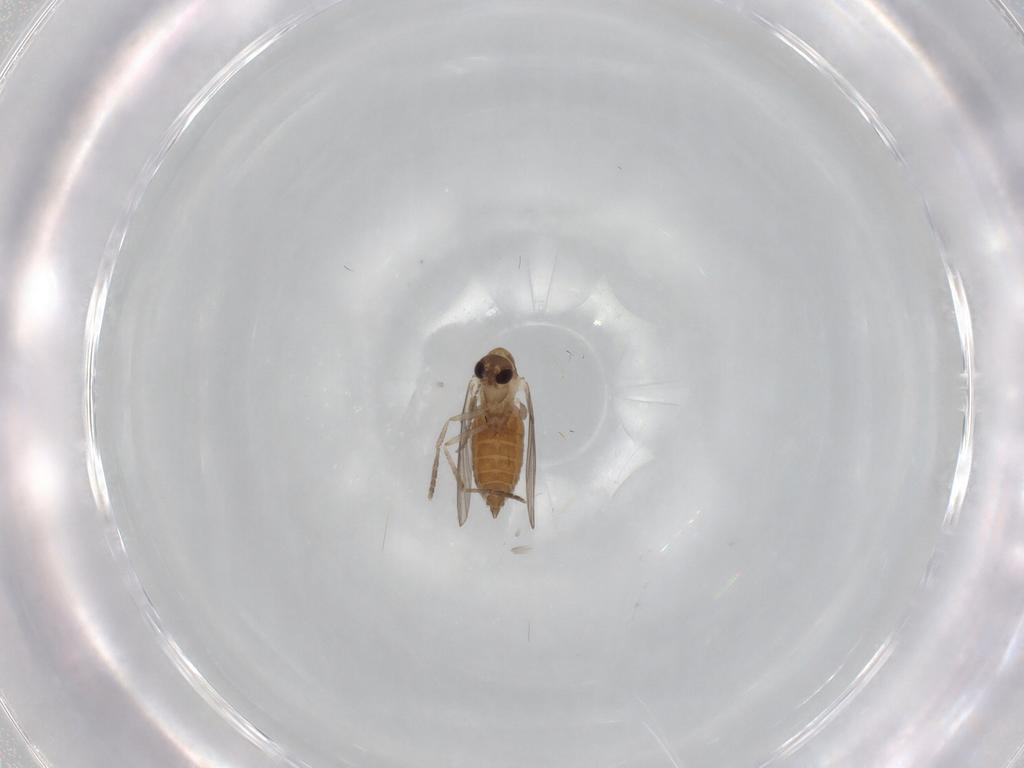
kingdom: Animalia
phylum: Arthropoda
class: Insecta
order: Diptera
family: Psychodidae
